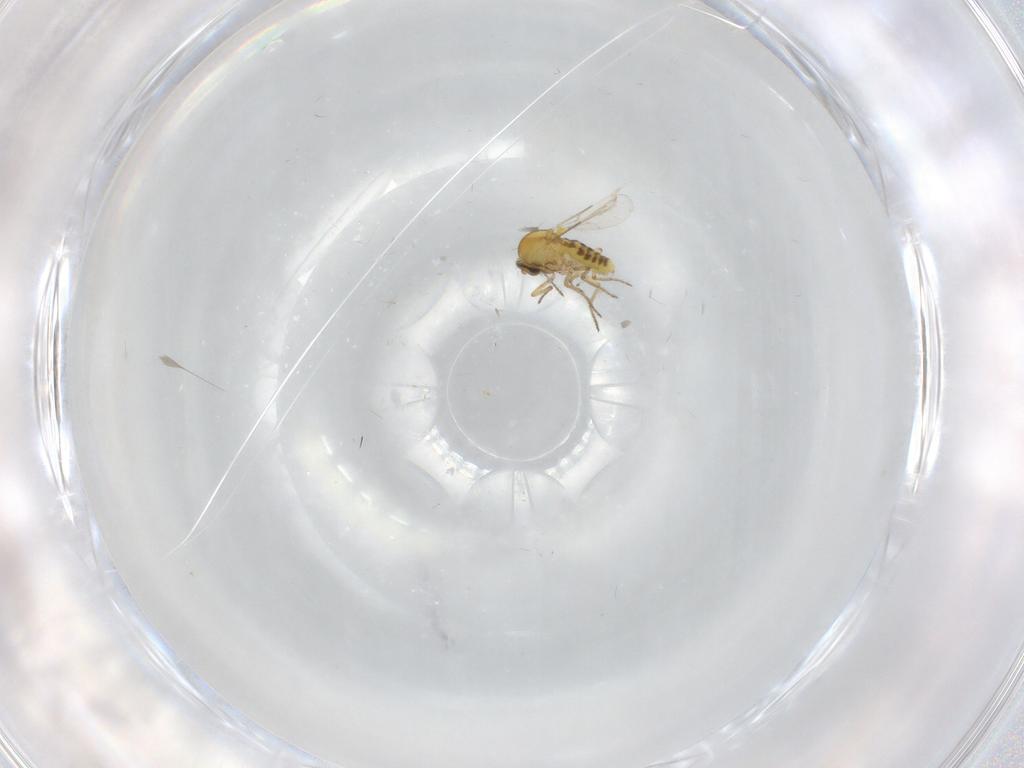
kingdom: Animalia
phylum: Arthropoda
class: Insecta
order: Diptera
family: Ceratopogonidae
